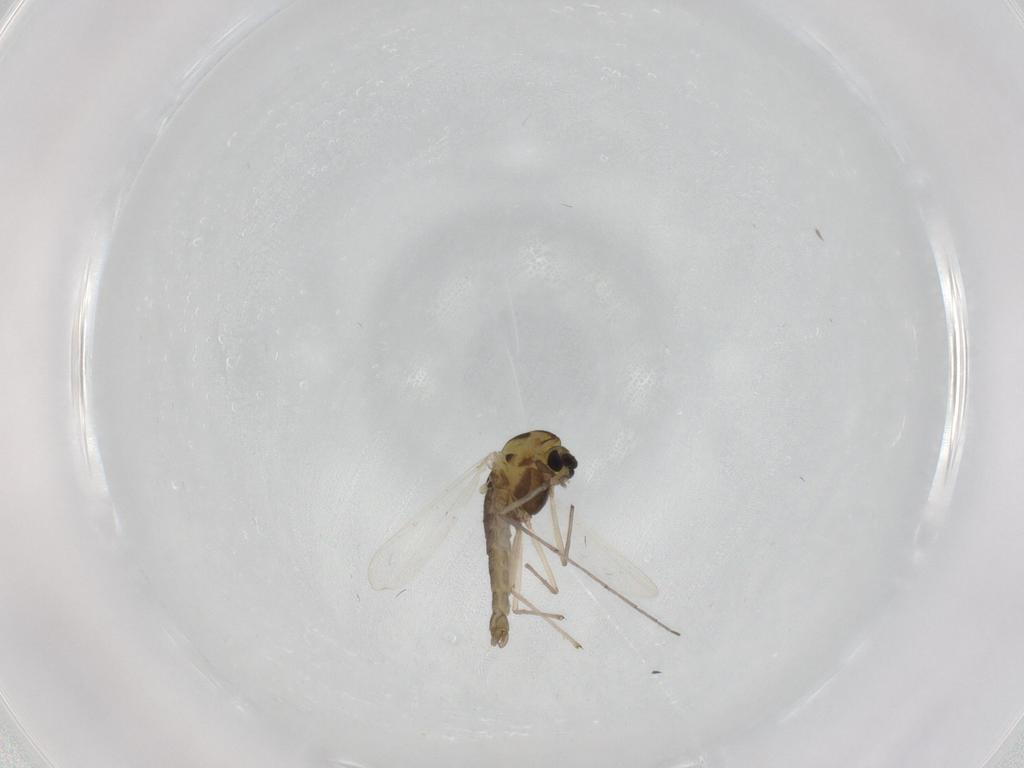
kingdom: Animalia
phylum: Arthropoda
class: Insecta
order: Diptera
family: Chironomidae
